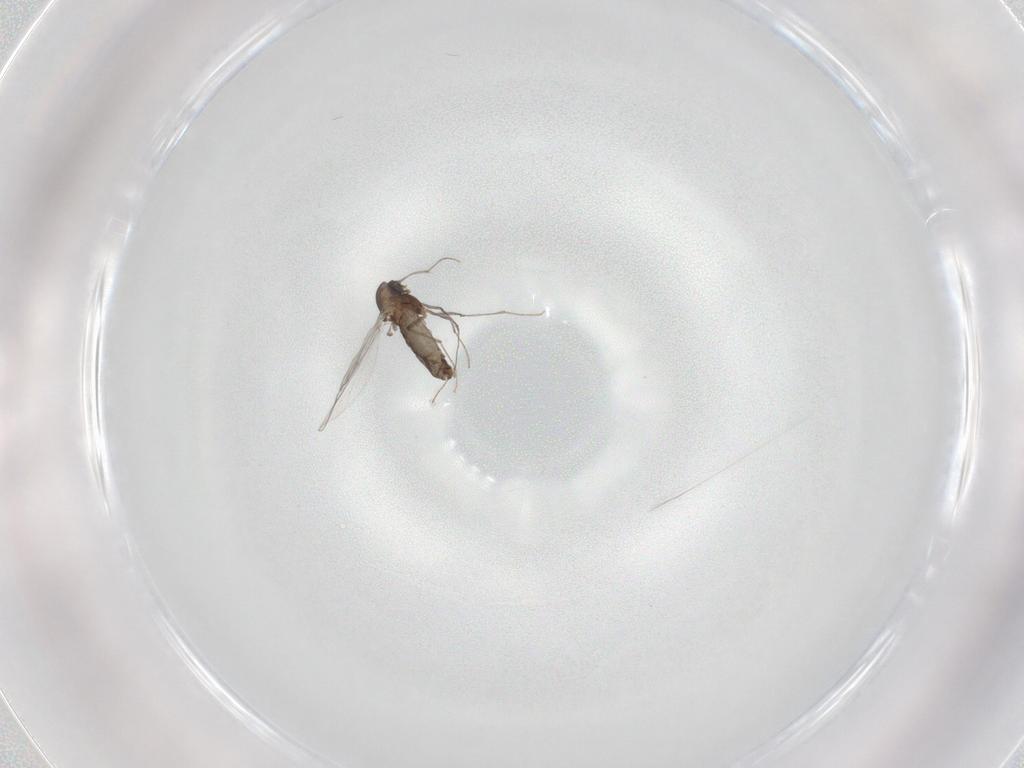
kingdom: Animalia
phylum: Arthropoda
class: Insecta
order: Diptera
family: Chironomidae
